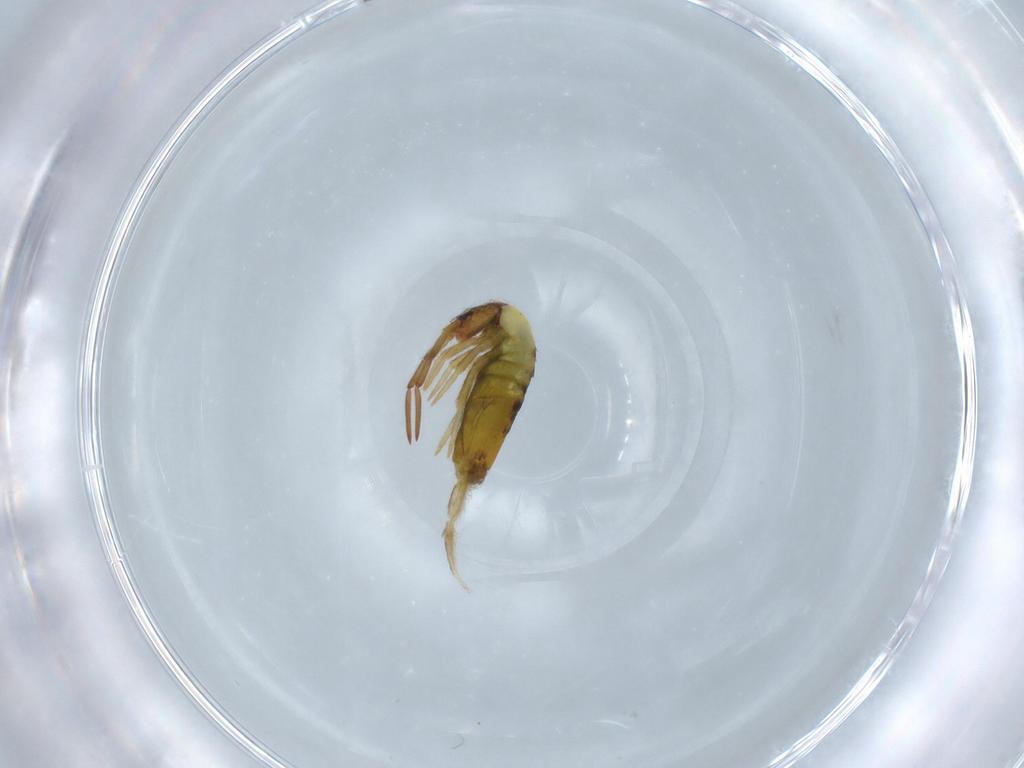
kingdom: Animalia
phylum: Arthropoda
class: Collembola
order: Entomobryomorpha
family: Entomobryidae
